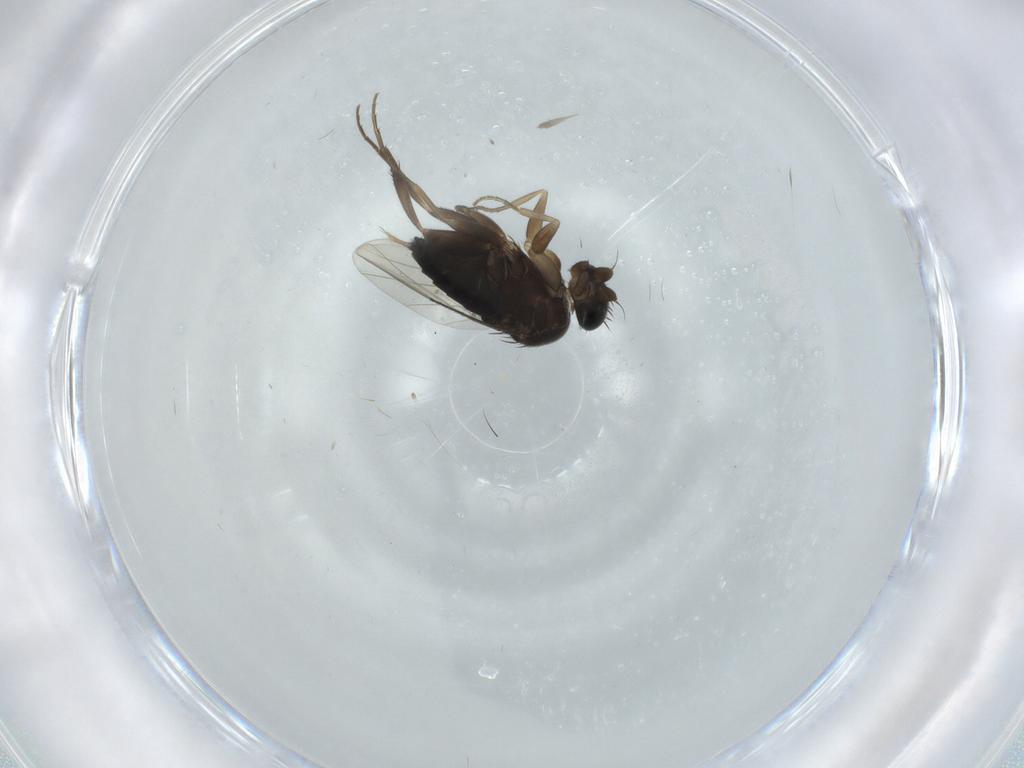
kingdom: Animalia
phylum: Arthropoda
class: Insecta
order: Diptera
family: Phoridae
